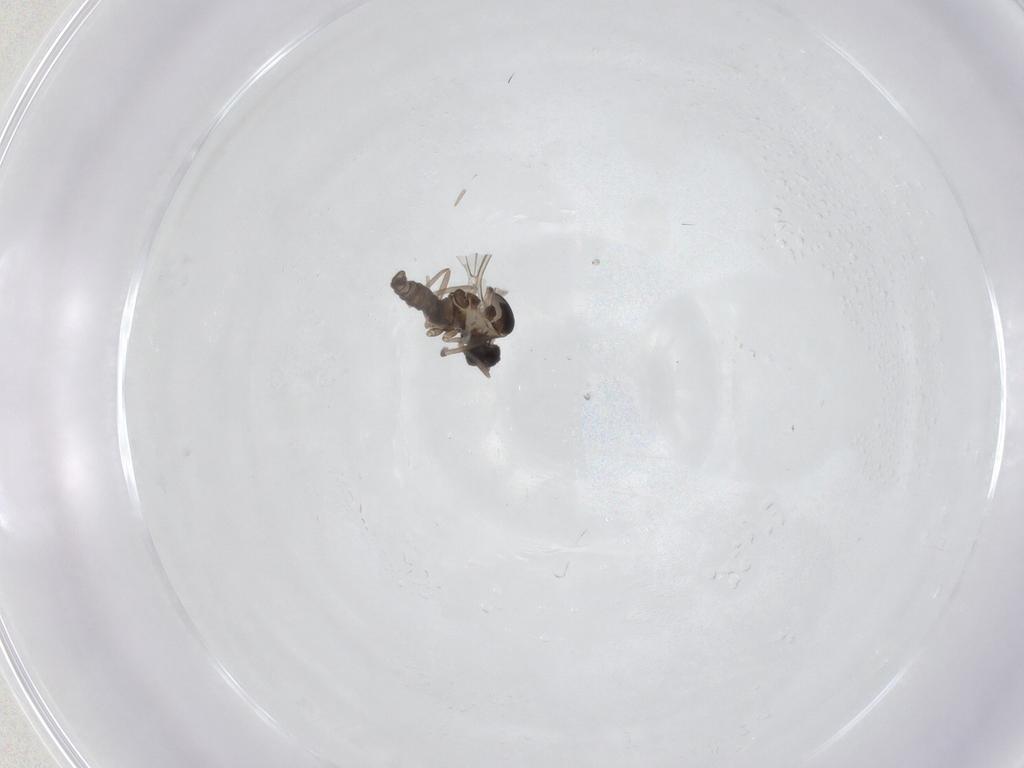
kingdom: Animalia
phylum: Arthropoda
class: Insecta
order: Diptera
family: Cecidomyiidae
